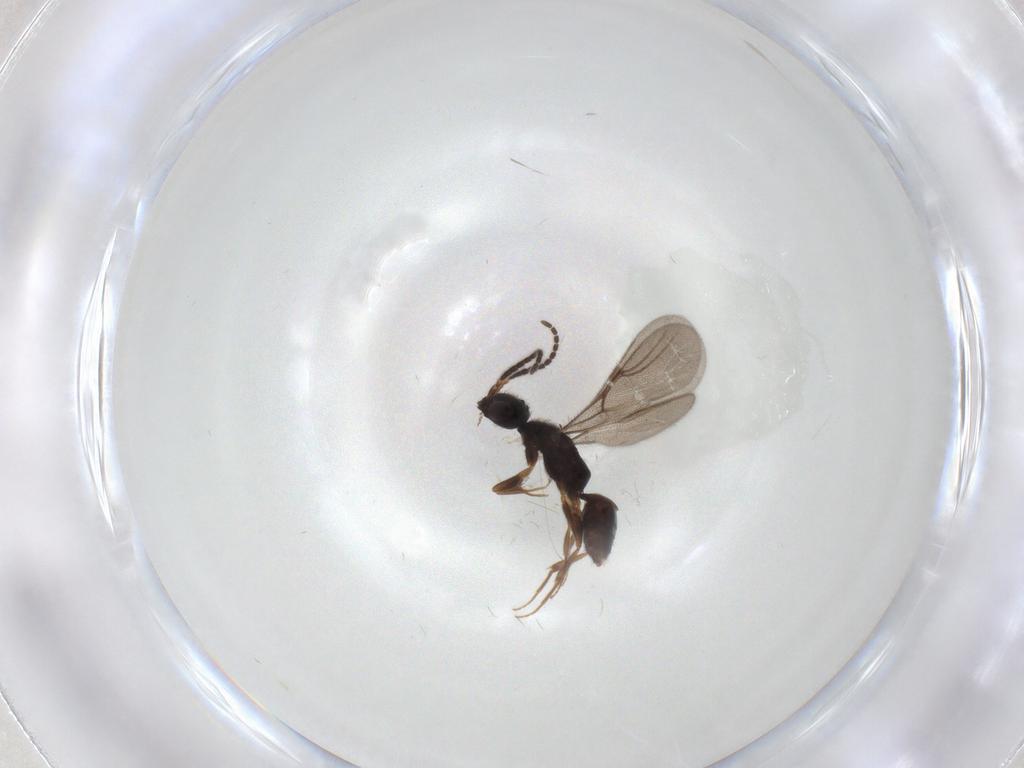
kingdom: Animalia
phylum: Arthropoda
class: Insecta
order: Hymenoptera
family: Bethylidae
